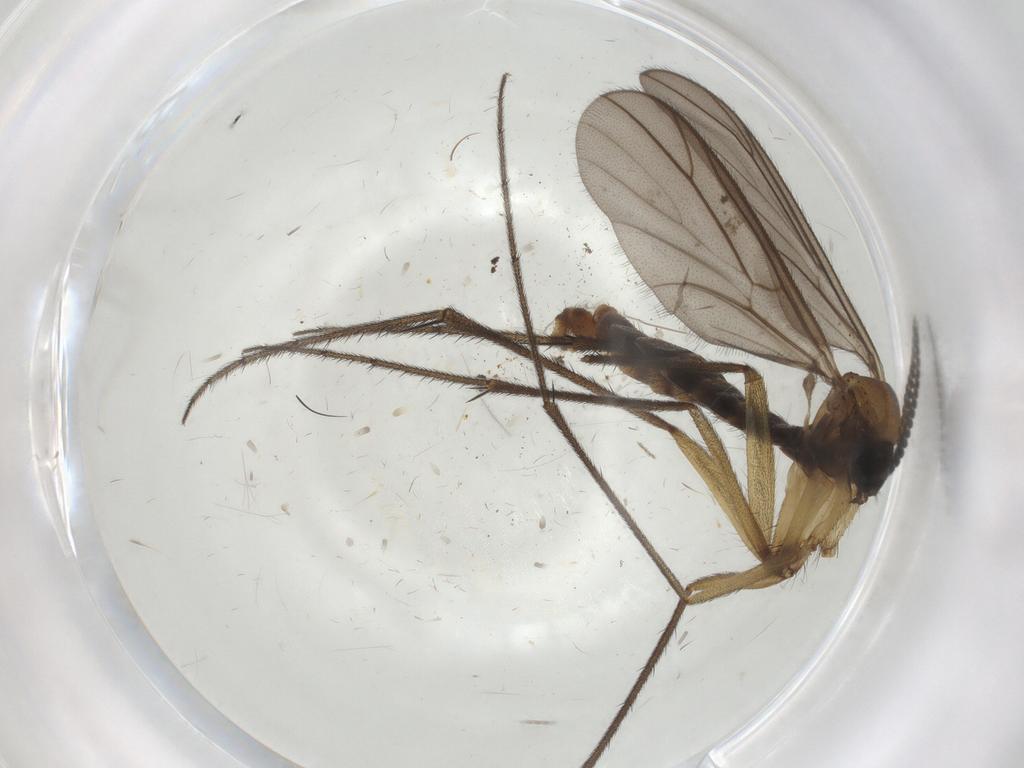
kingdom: Animalia
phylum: Arthropoda
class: Insecta
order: Diptera
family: Ditomyiidae
